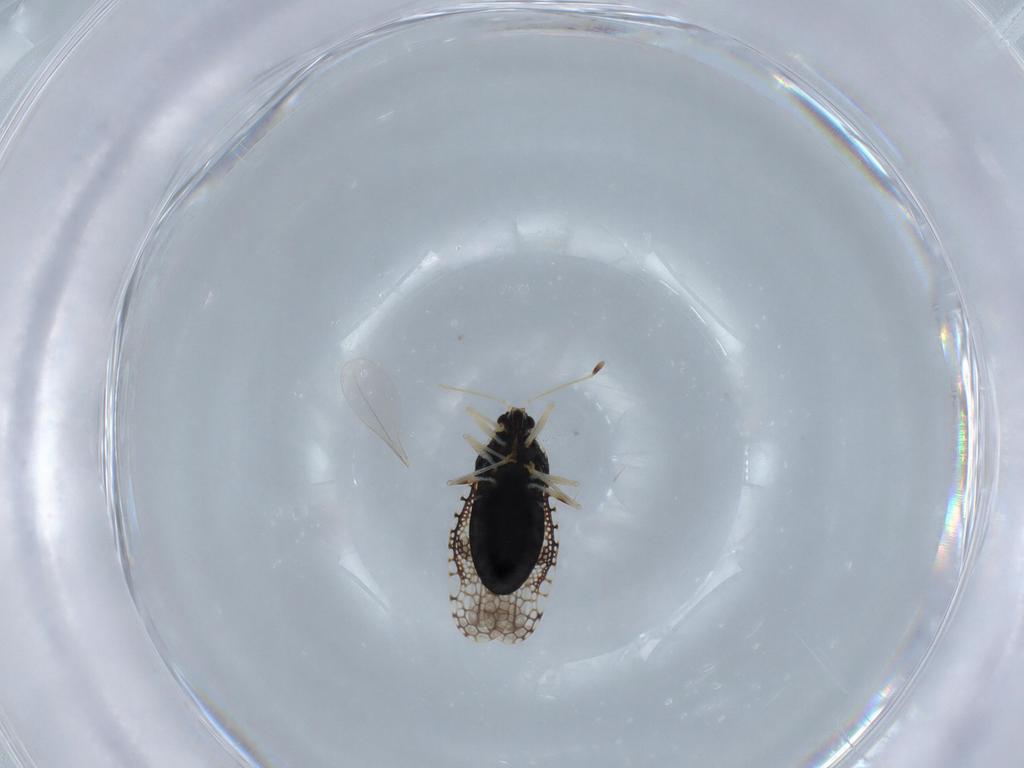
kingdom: Animalia
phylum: Arthropoda
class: Insecta
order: Hemiptera
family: Tingidae
